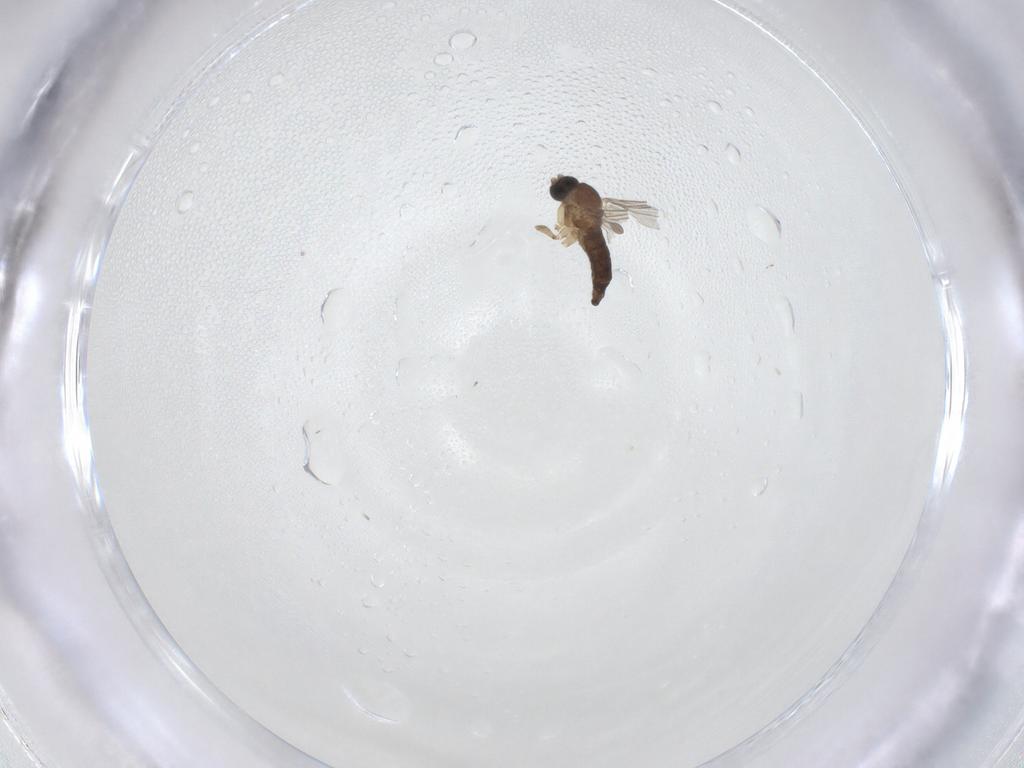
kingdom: Animalia
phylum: Arthropoda
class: Insecta
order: Diptera
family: Sciaridae
